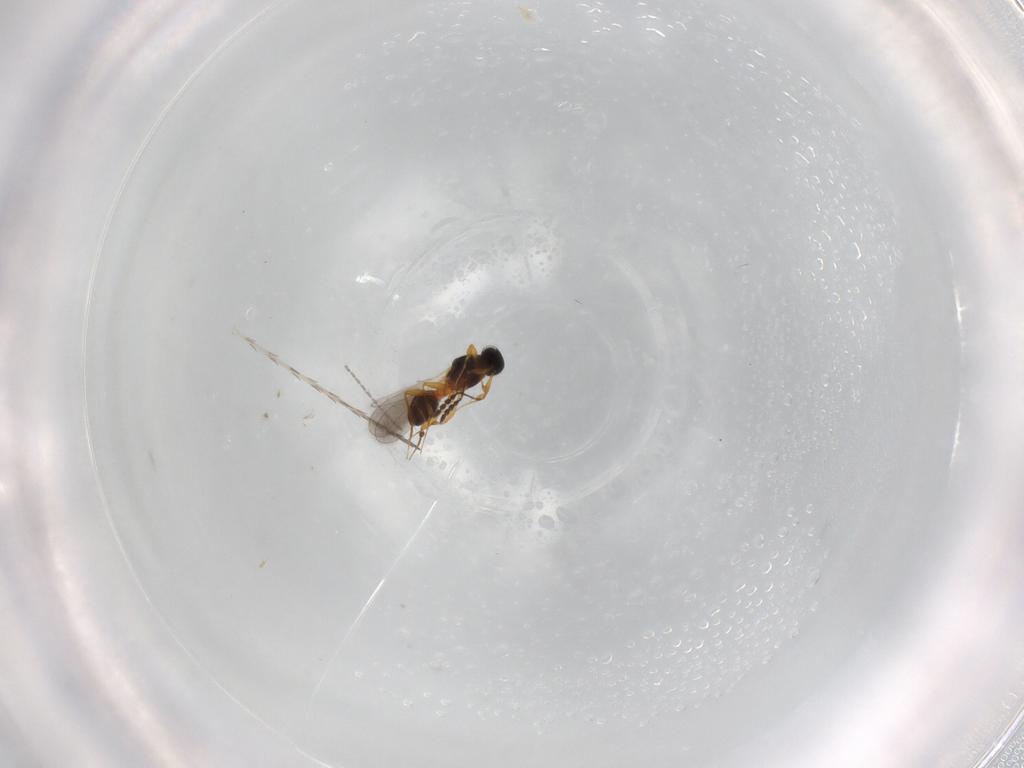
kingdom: Animalia
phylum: Arthropoda
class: Insecta
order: Hymenoptera
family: Platygastridae
